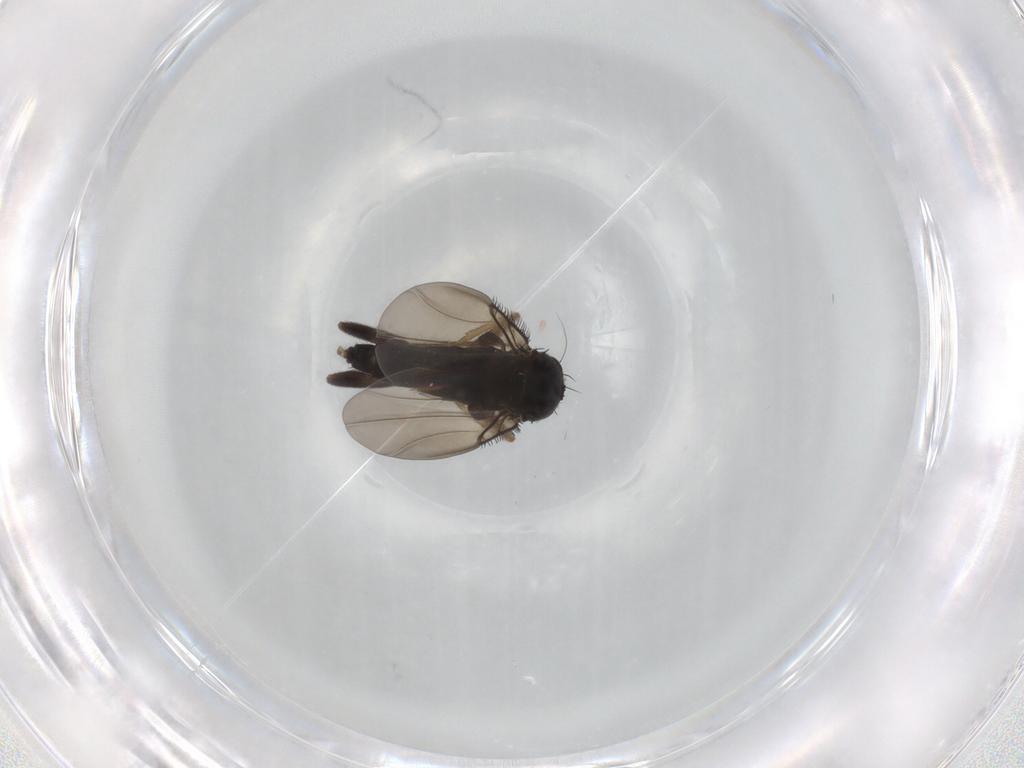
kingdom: Animalia
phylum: Arthropoda
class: Insecta
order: Diptera
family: Phoridae
